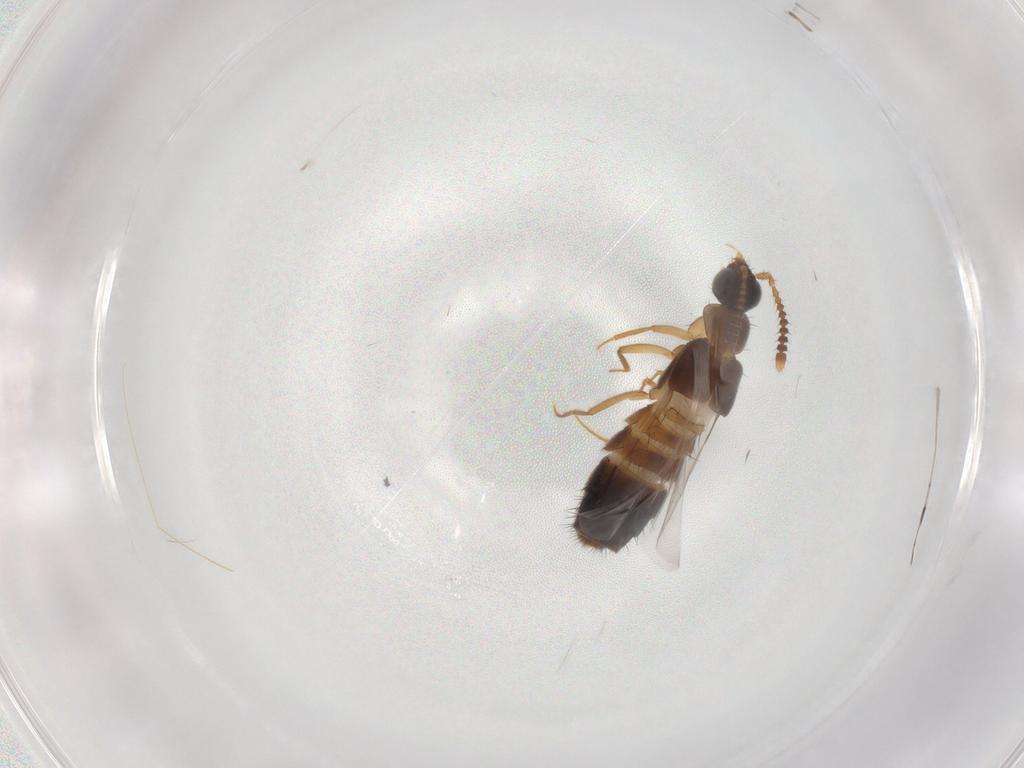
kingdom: Animalia
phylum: Arthropoda
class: Insecta
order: Coleoptera
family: Staphylinidae
